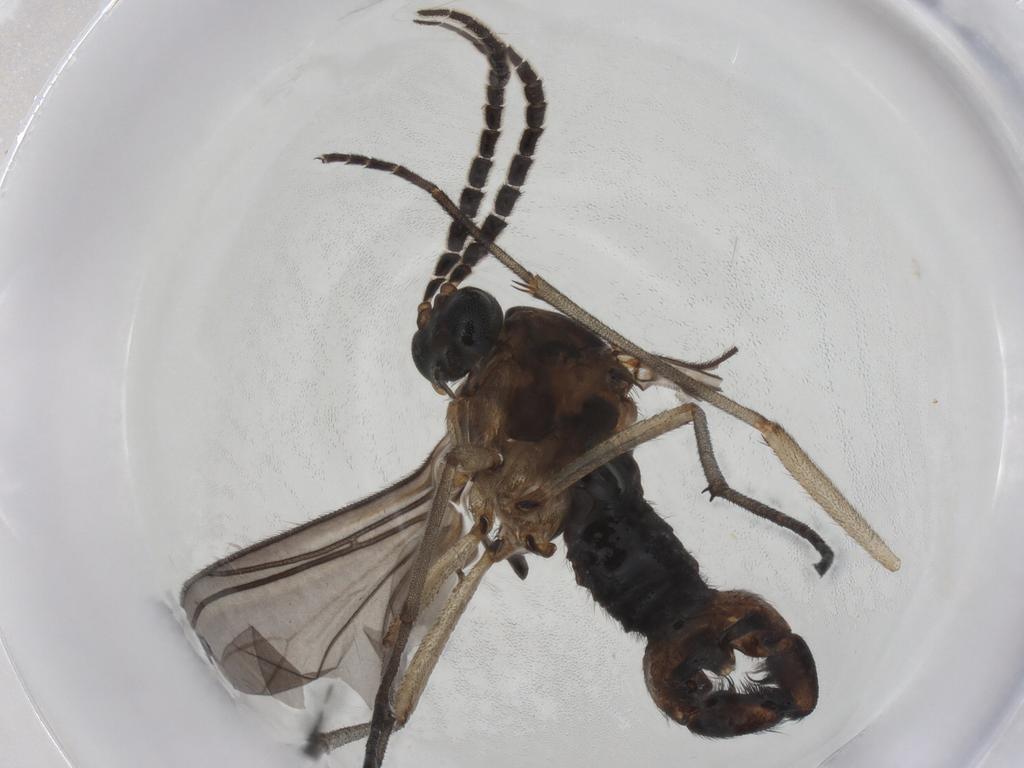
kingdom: Animalia
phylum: Arthropoda
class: Insecta
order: Diptera
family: Sciaridae
